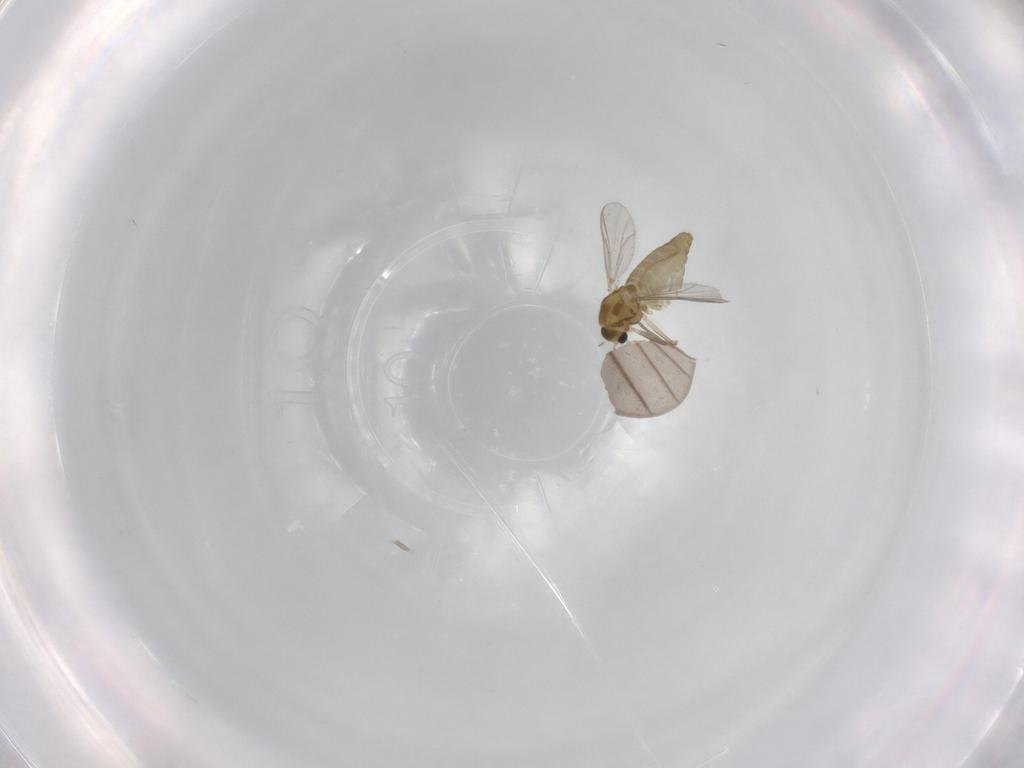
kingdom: Animalia
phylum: Arthropoda
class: Insecta
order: Diptera
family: Chironomidae
